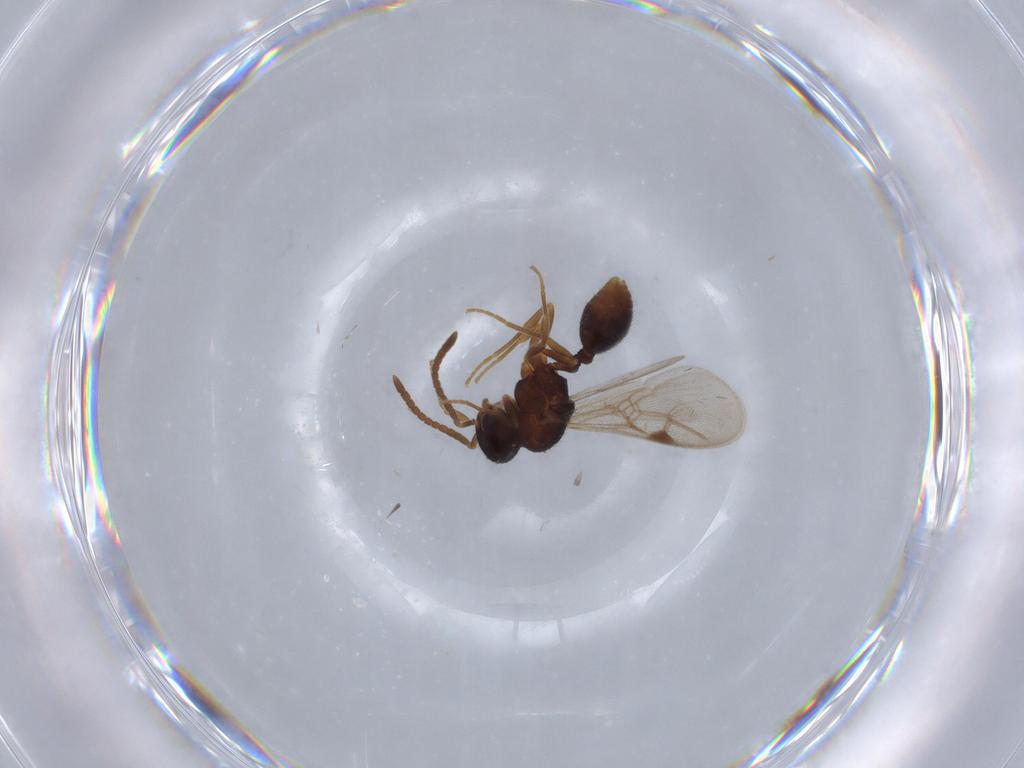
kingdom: Animalia
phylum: Arthropoda
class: Insecta
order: Hymenoptera
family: Formicidae
